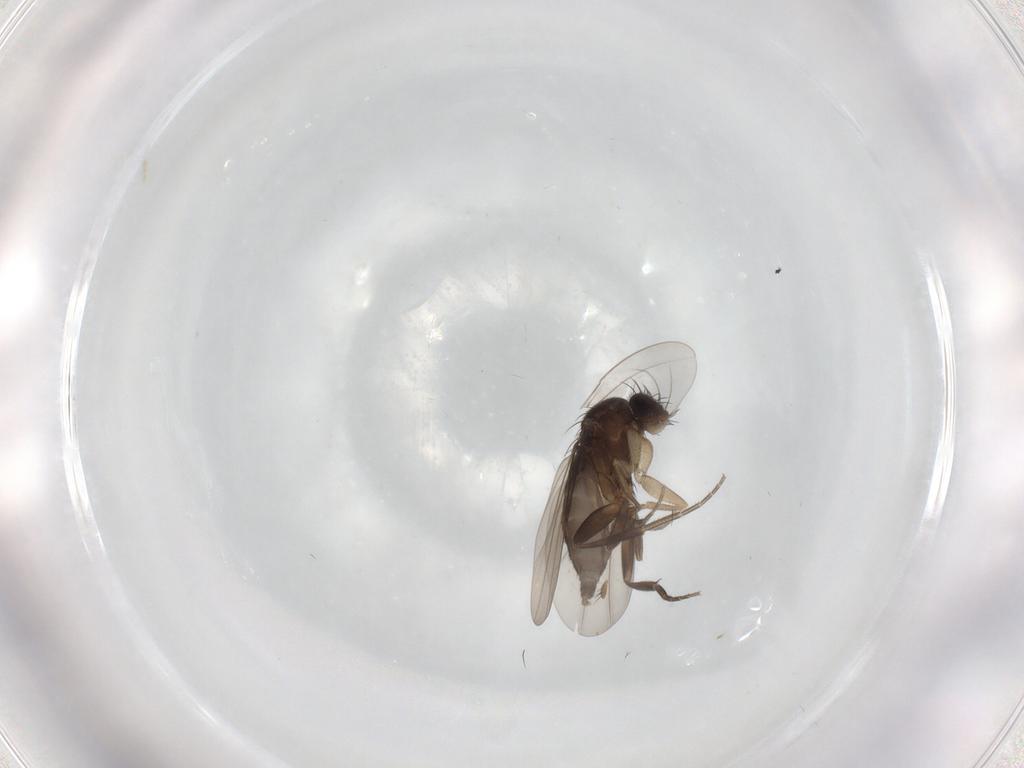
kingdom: Animalia
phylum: Arthropoda
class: Insecta
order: Diptera
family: Phoridae
